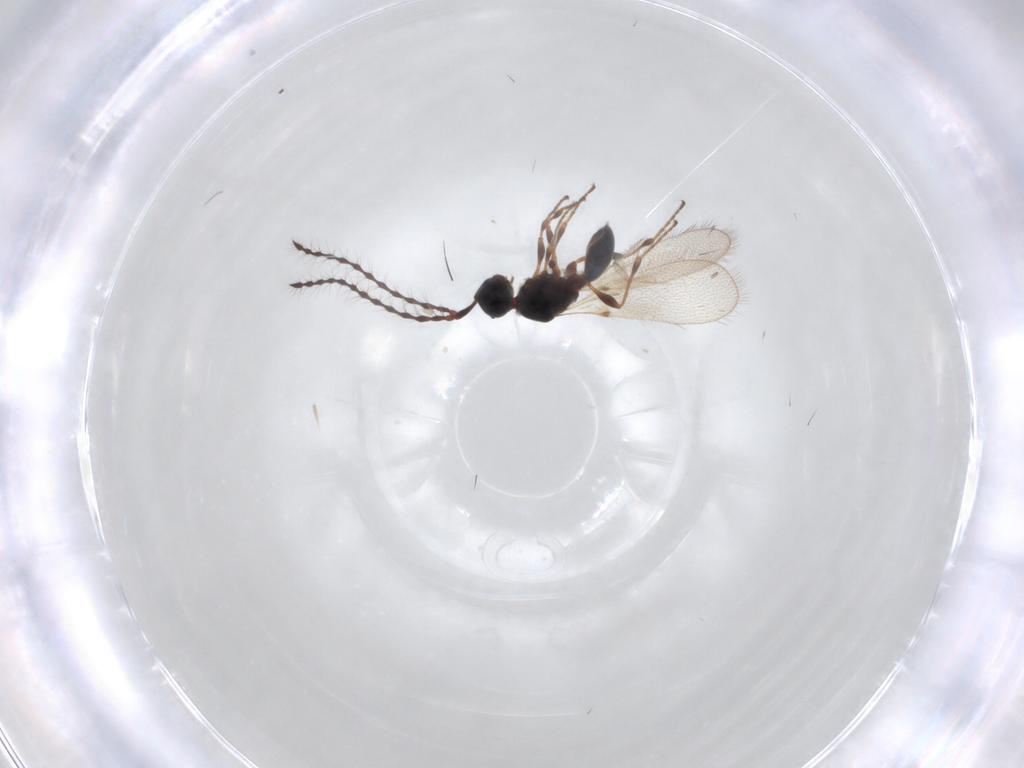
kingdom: Animalia
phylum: Arthropoda
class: Insecta
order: Hymenoptera
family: Diapriidae
